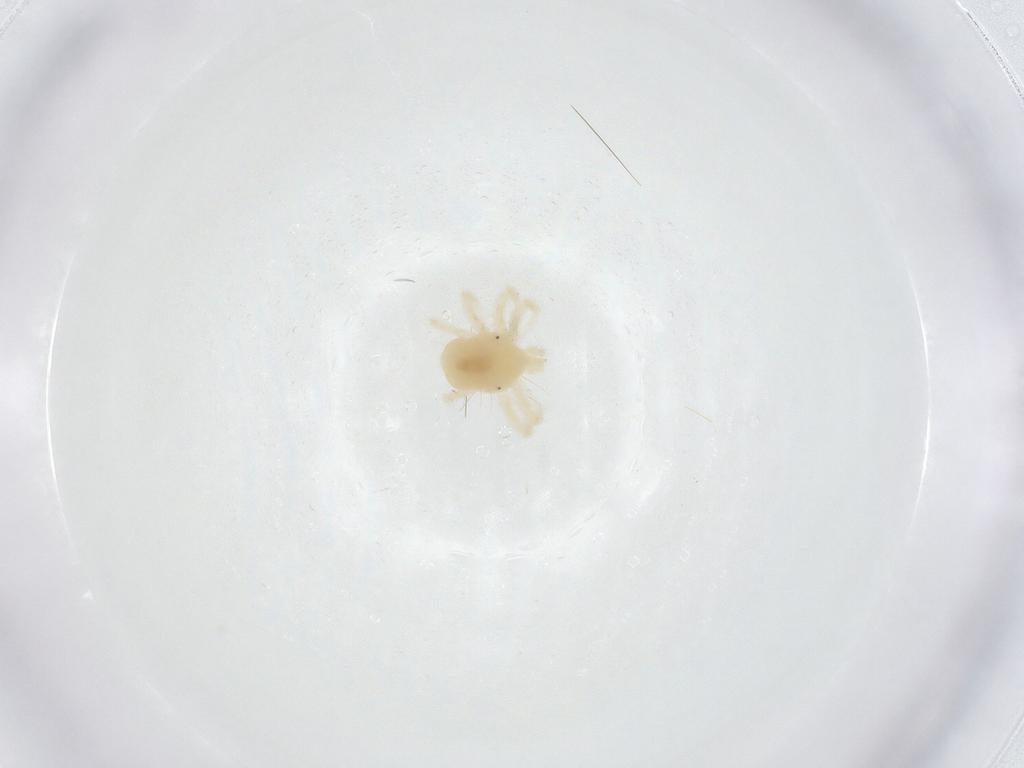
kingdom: Animalia
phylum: Arthropoda
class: Arachnida
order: Trombidiformes
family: Anystidae
